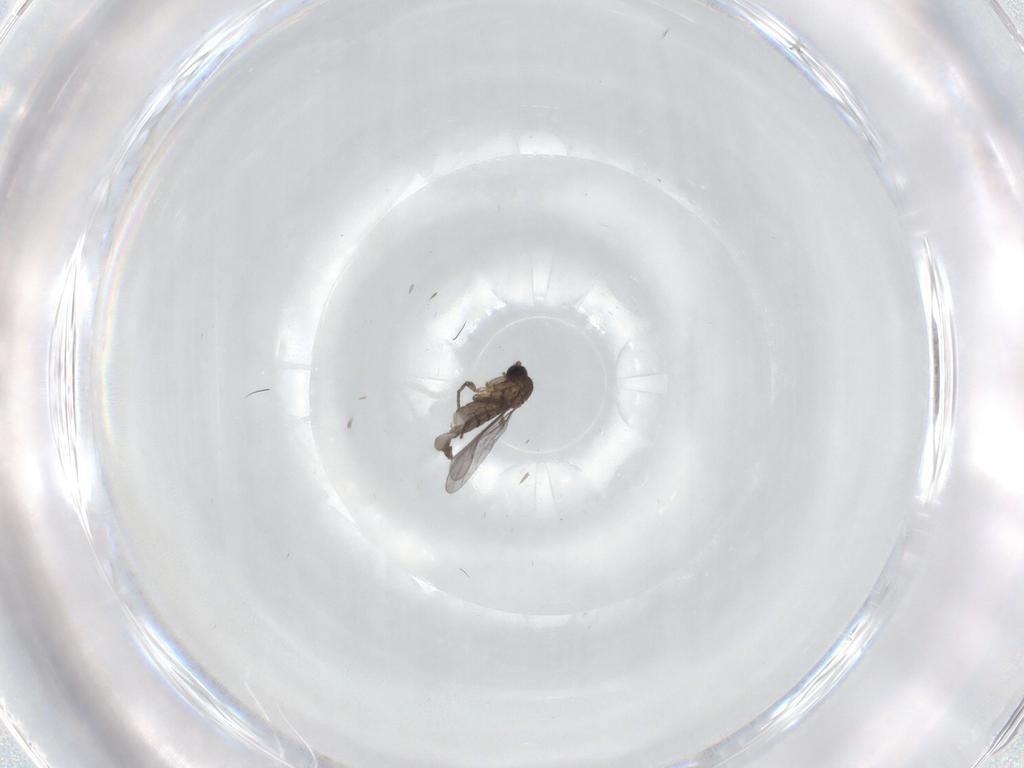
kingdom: Animalia
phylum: Arthropoda
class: Insecta
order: Diptera
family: Sciaridae
